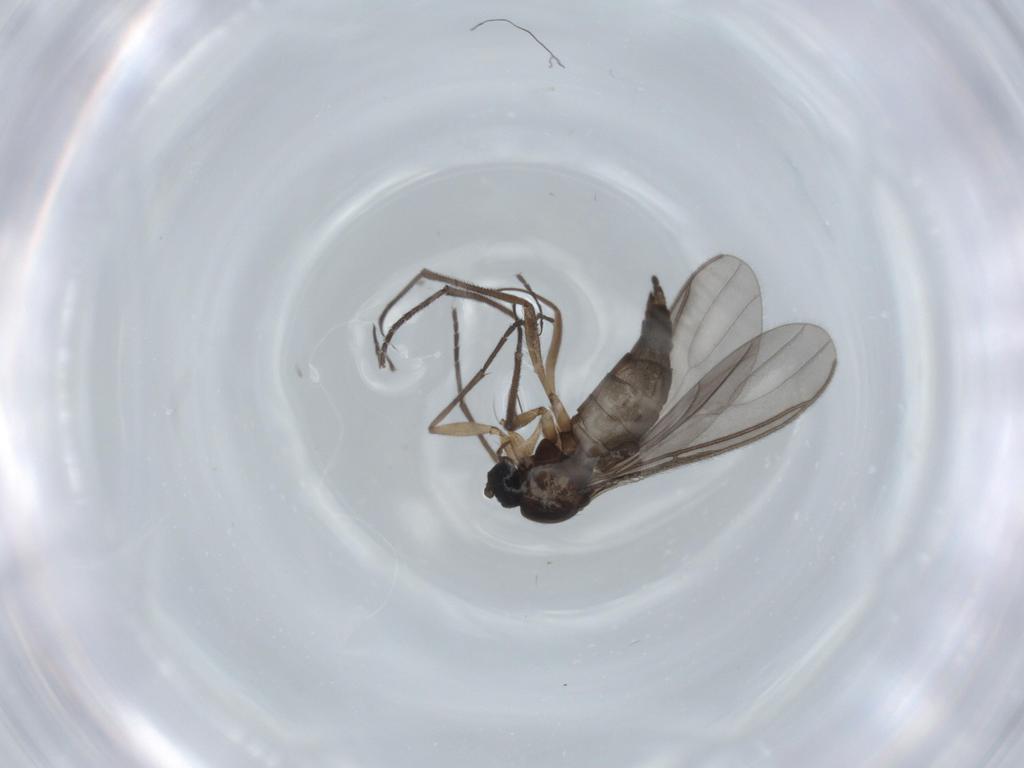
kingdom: Animalia
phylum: Arthropoda
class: Insecta
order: Diptera
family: Sciaridae
